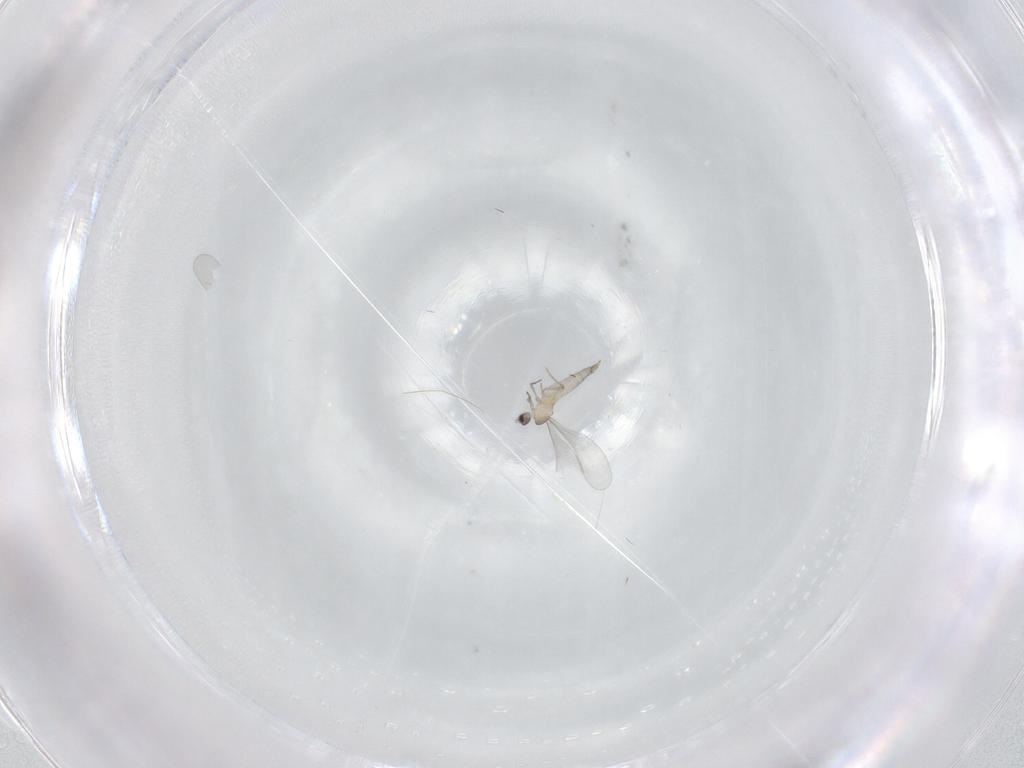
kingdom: Animalia
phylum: Arthropoda
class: Insecta
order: Diptera
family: Cecidomyiidae
